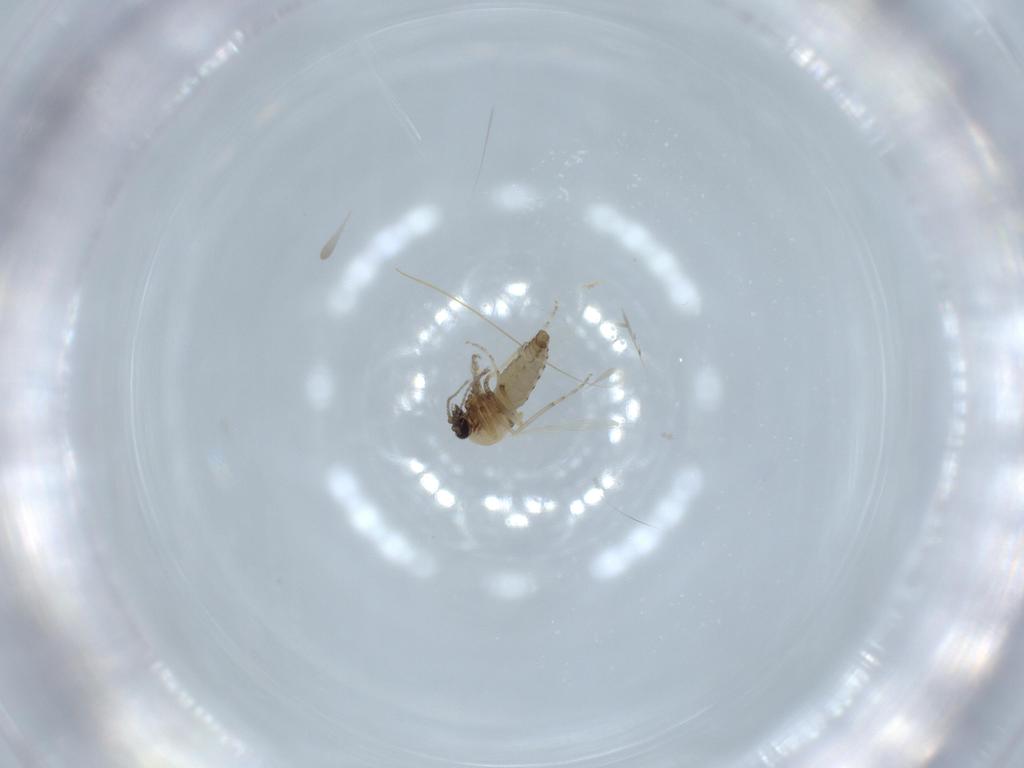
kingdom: Animalia
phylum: Arthropoda
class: Insecta
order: Diptera
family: Ceratopogonidae
